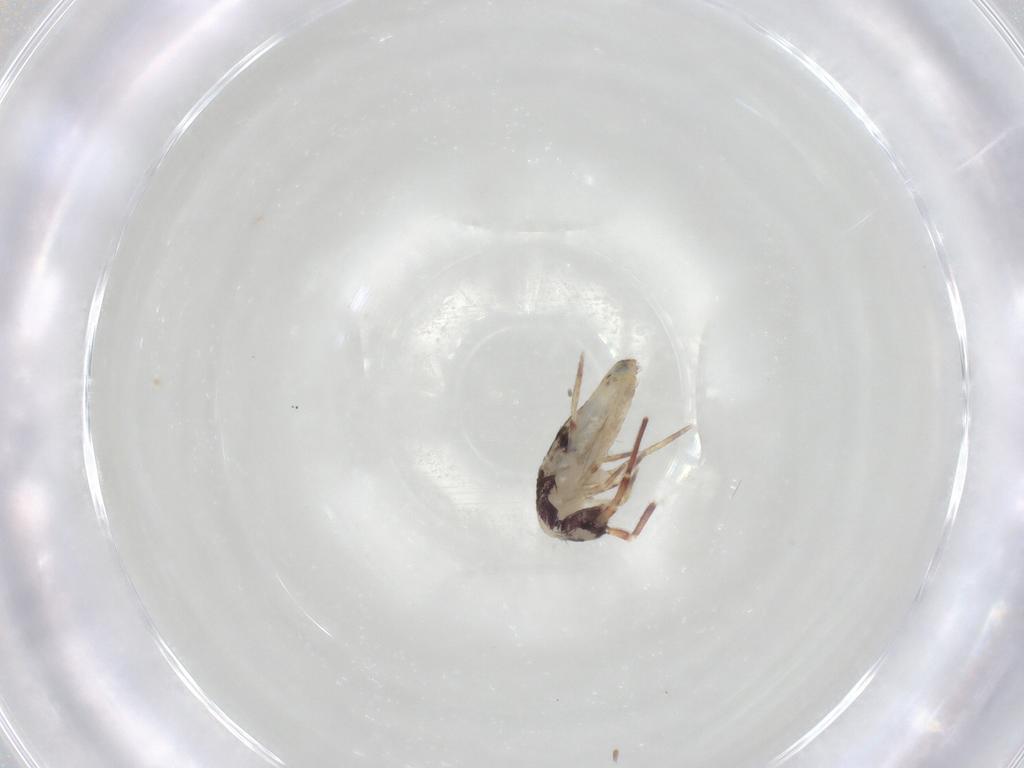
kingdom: Animalia
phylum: Arthropoda
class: Collembola
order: Entomobryomorpha
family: Entomobryidae
